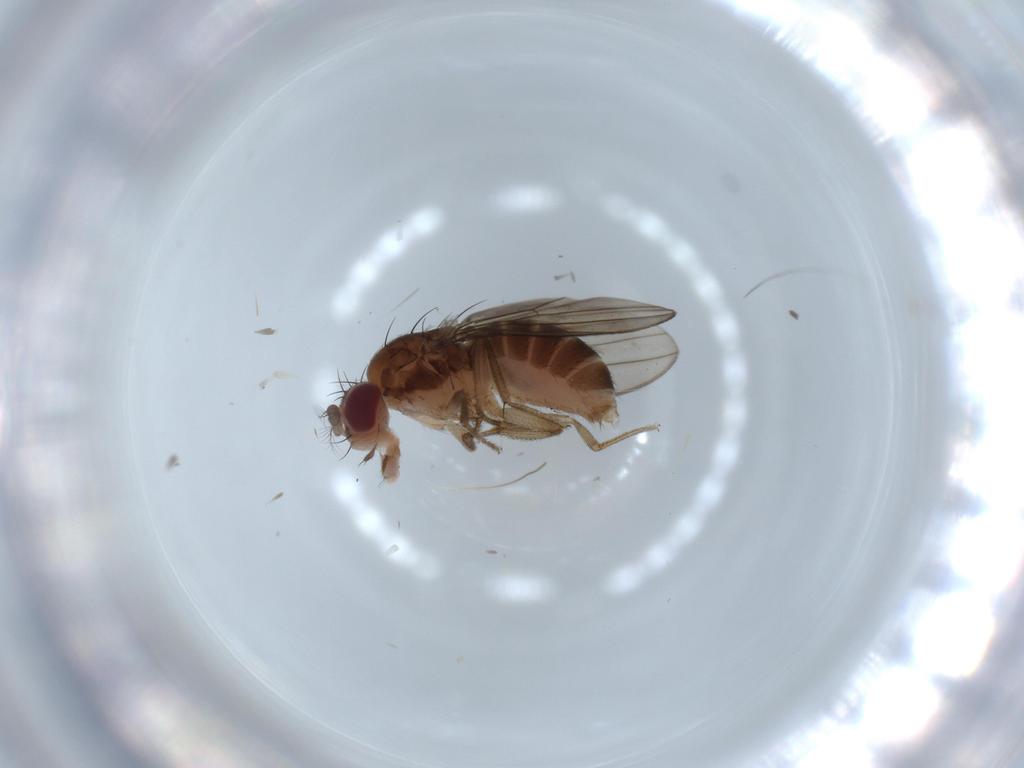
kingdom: Animalia
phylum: Arthropoda
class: Insecta
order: Diptera
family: Drosophilidae
